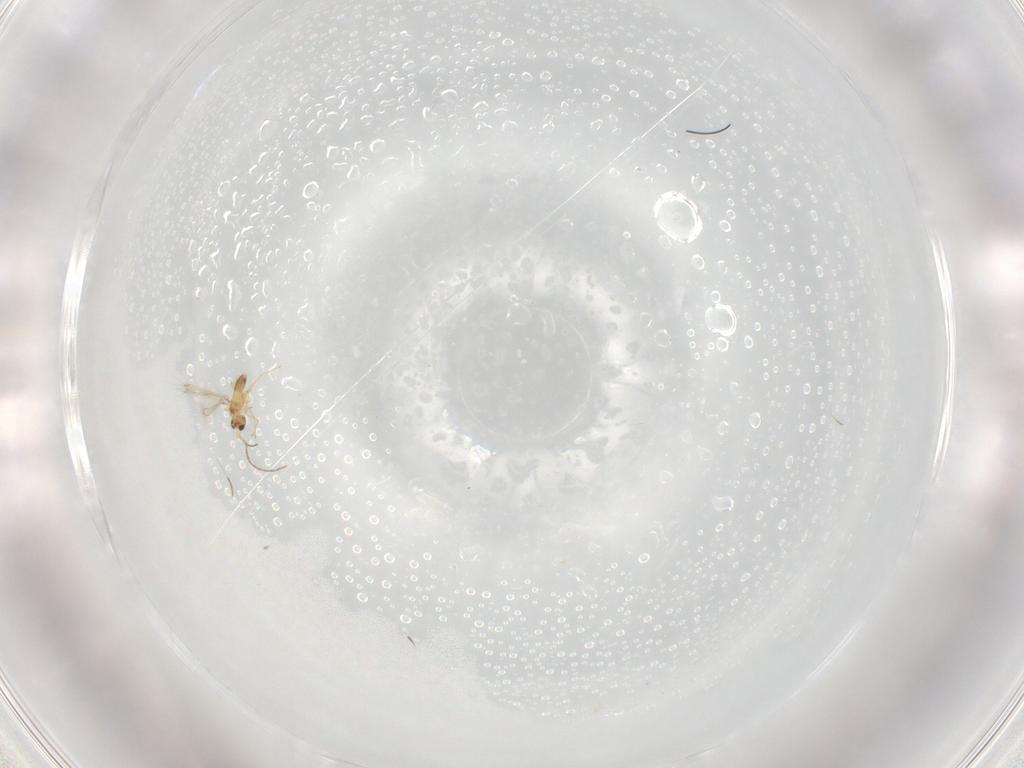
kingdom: Animalia
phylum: Arthropoda
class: Insecta
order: Hymenoptera
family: Mymaridae
